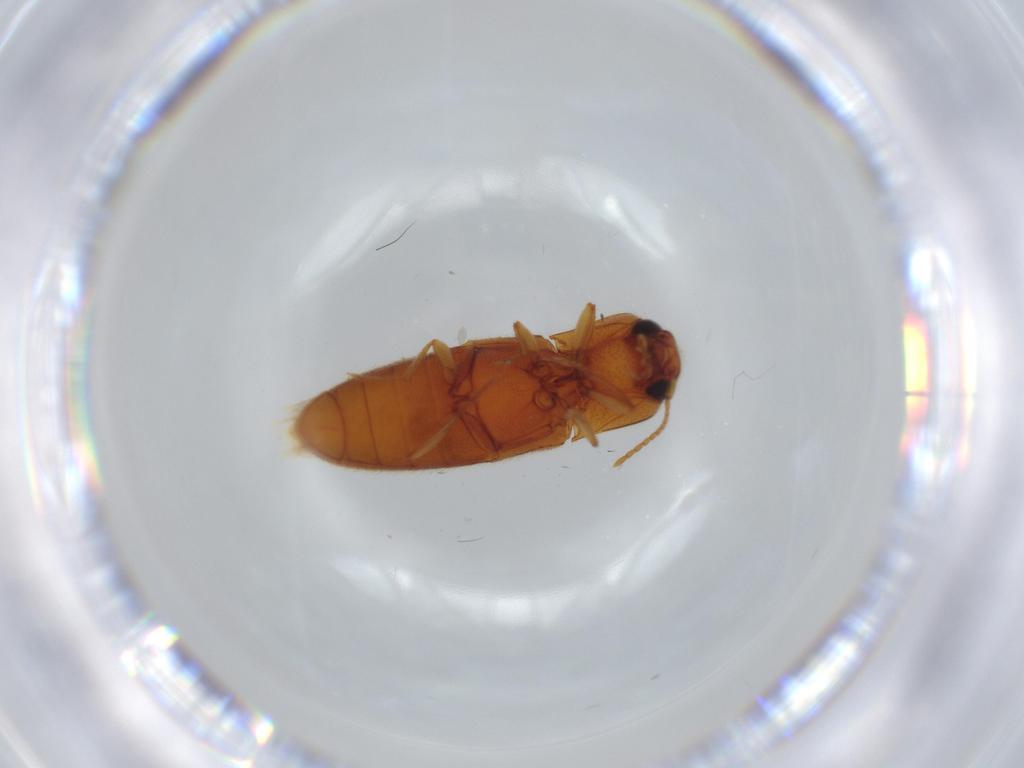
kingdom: Animalia
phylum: Arthropoda
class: Insecta
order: Coleoptera
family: Elateridae
